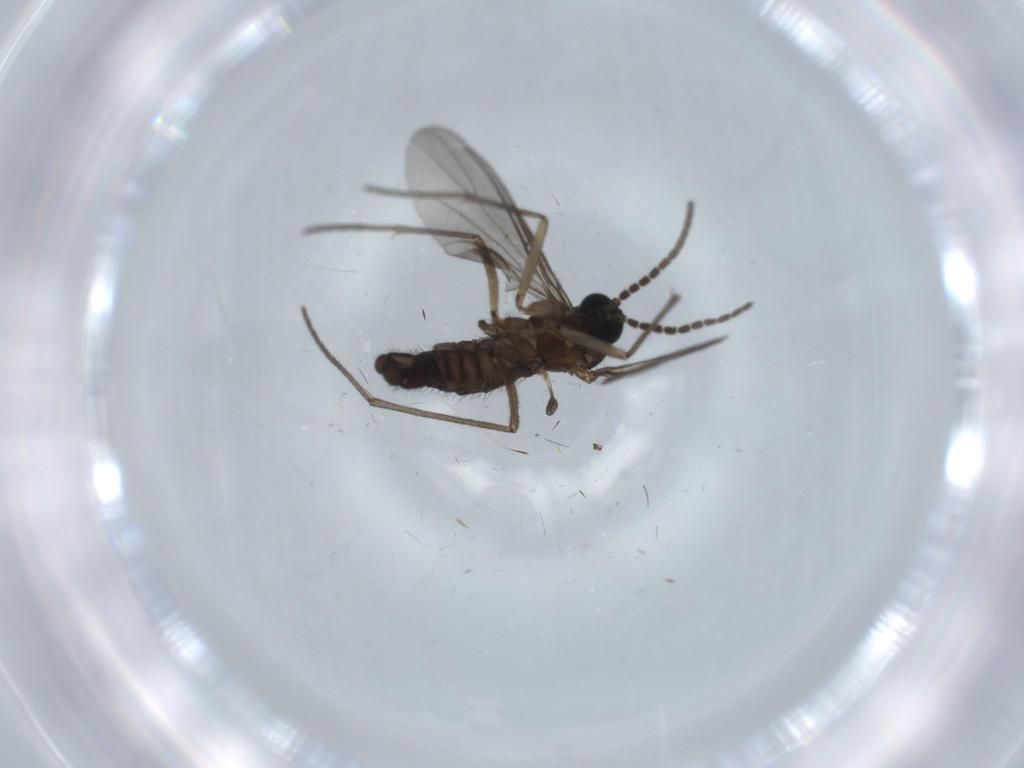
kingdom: Animalia
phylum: Arthropoda
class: Insecta
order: Diptera
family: Sciaridae
